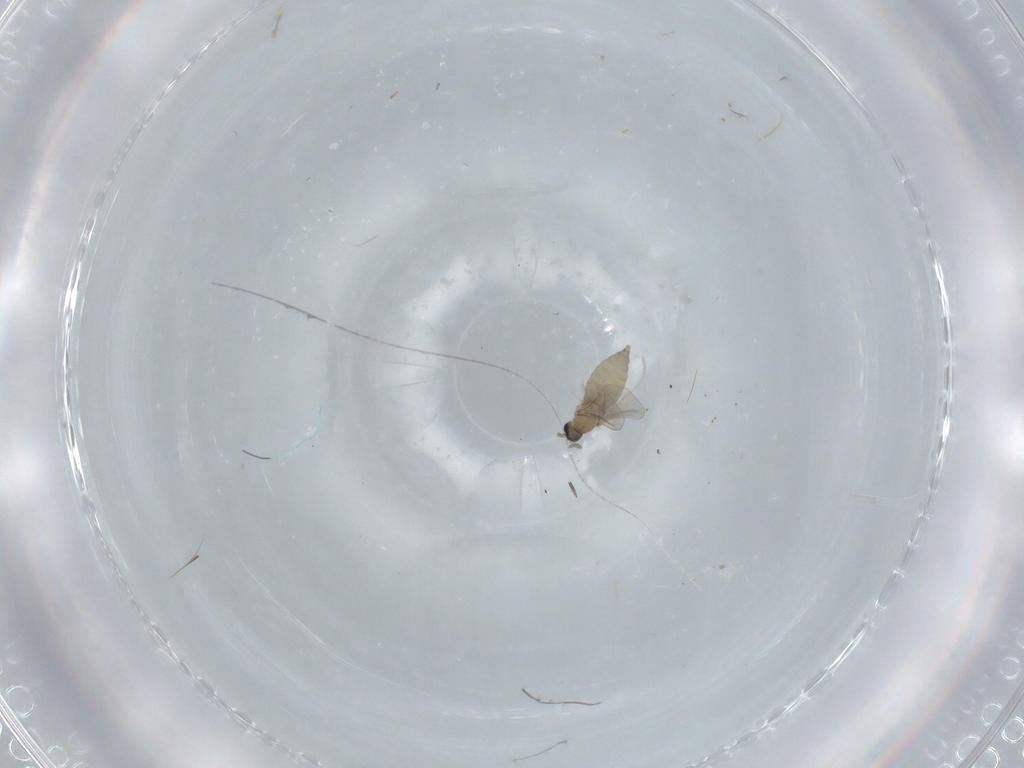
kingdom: Animalia
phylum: Arthropoda
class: Insecta
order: Diptera
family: Cecidomyiidae
